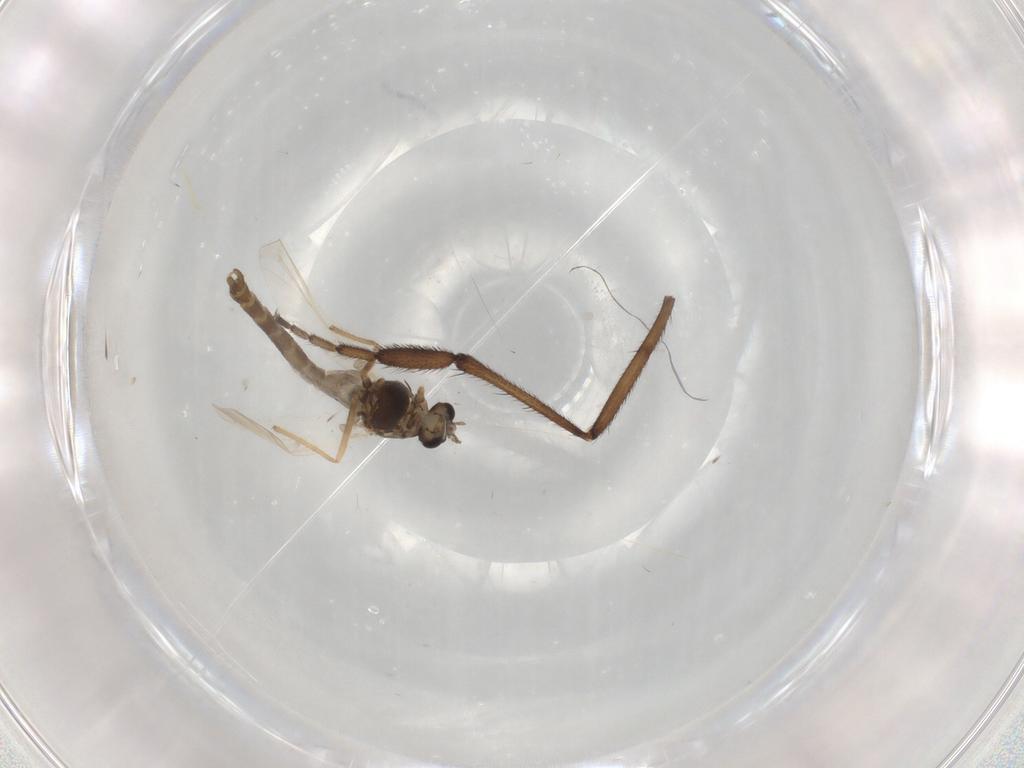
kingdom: Animalia
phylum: Arthropoda
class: Insecta
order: Diptera
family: Chironomidae
